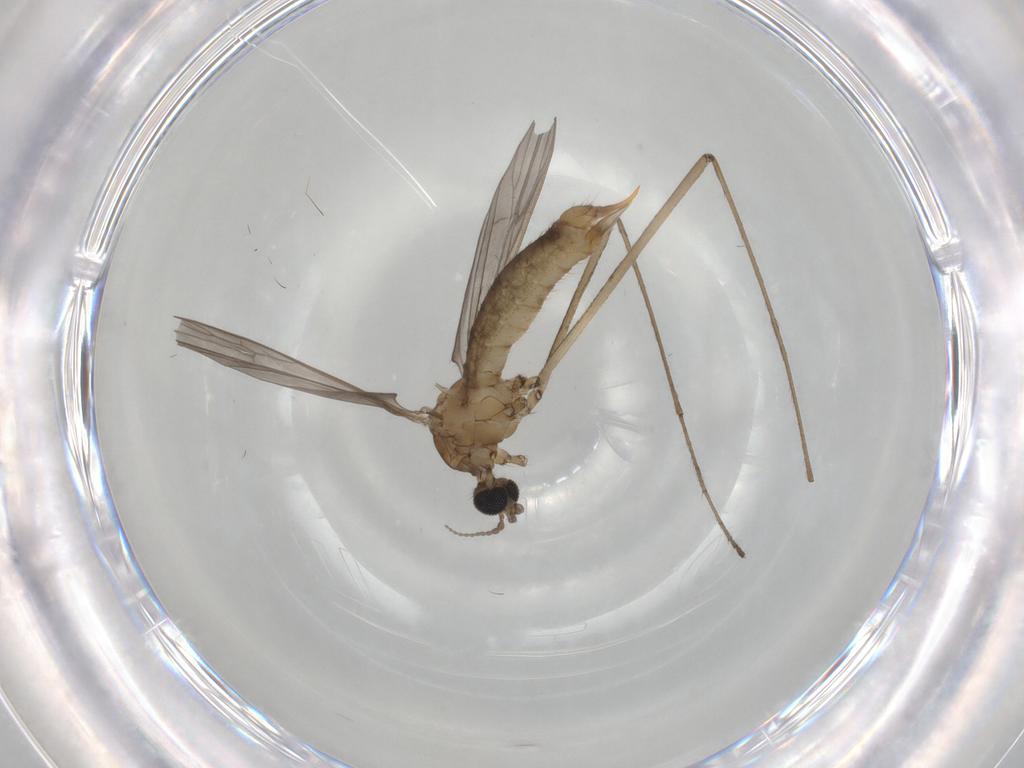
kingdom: Animalia
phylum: Arthropoda
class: Insecta
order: Diptera
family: Limoniidae
